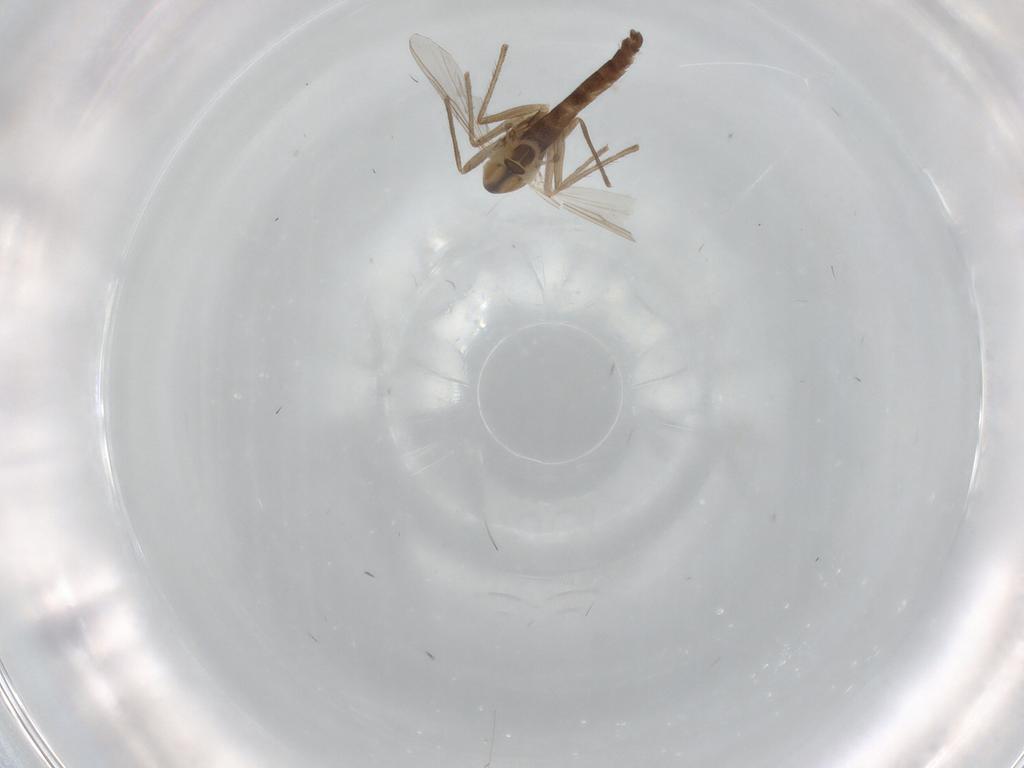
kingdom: Animalia
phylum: Arthropoda
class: Insecta
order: Diptera
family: Chironomidae
